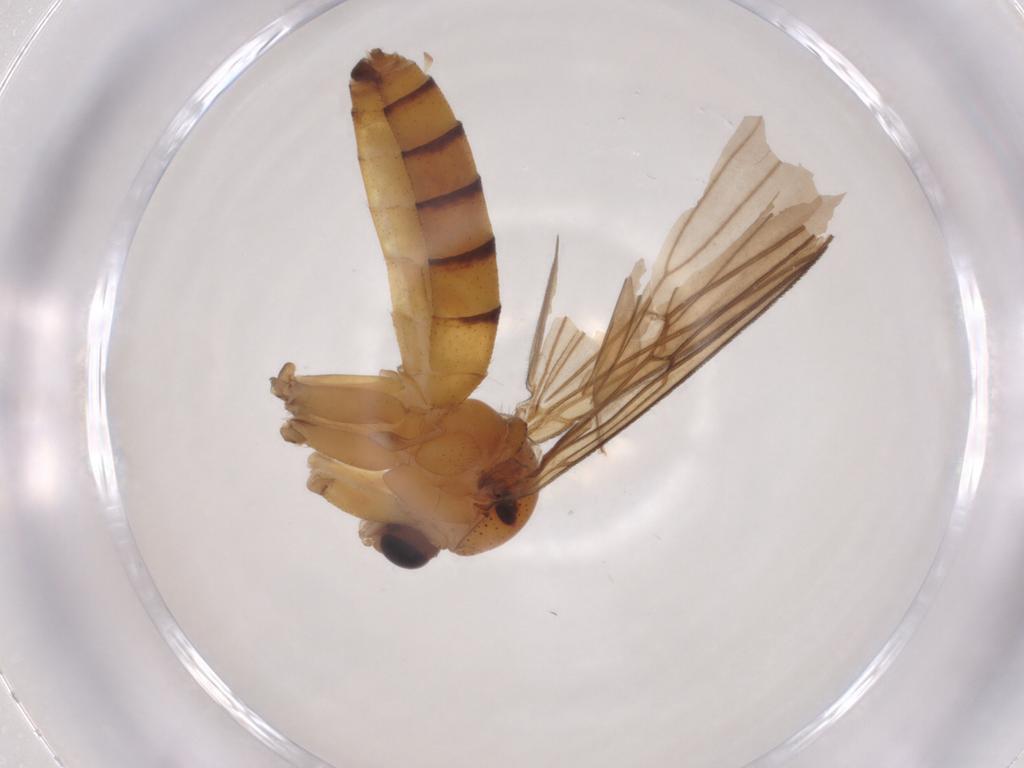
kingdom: Animalia
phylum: Arthropoda
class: Insecta
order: Diptera
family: Mycetophilidae
